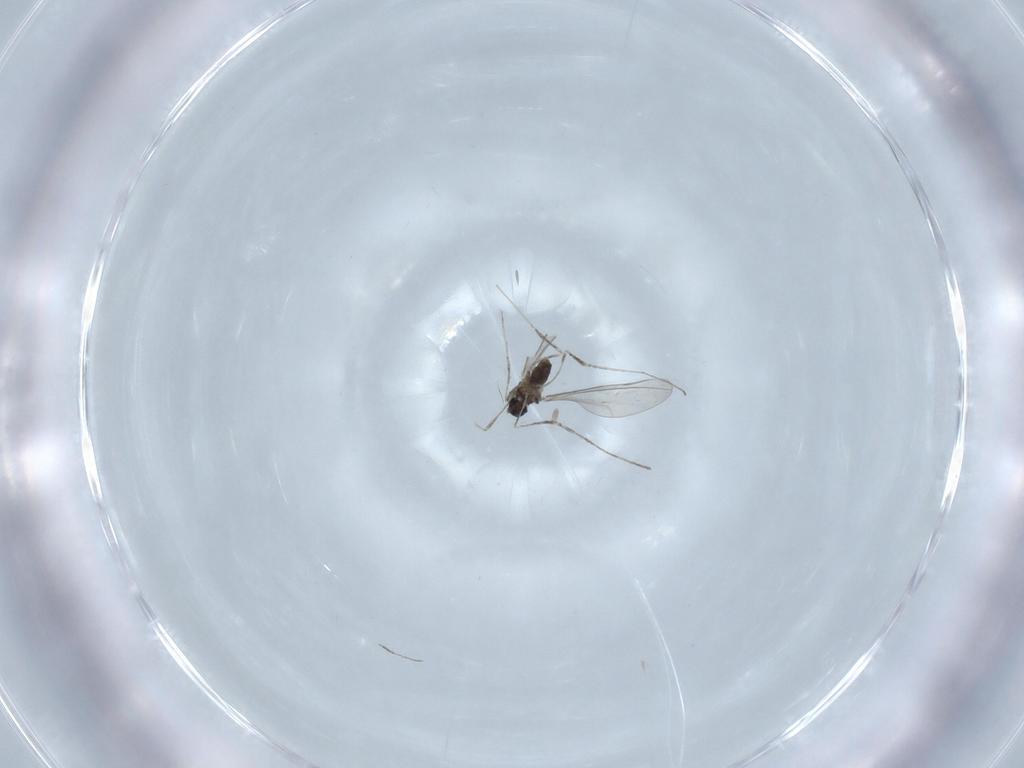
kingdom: Animalia
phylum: Arthropoda
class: Insecta
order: Diptera
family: Cecidomyiidae
